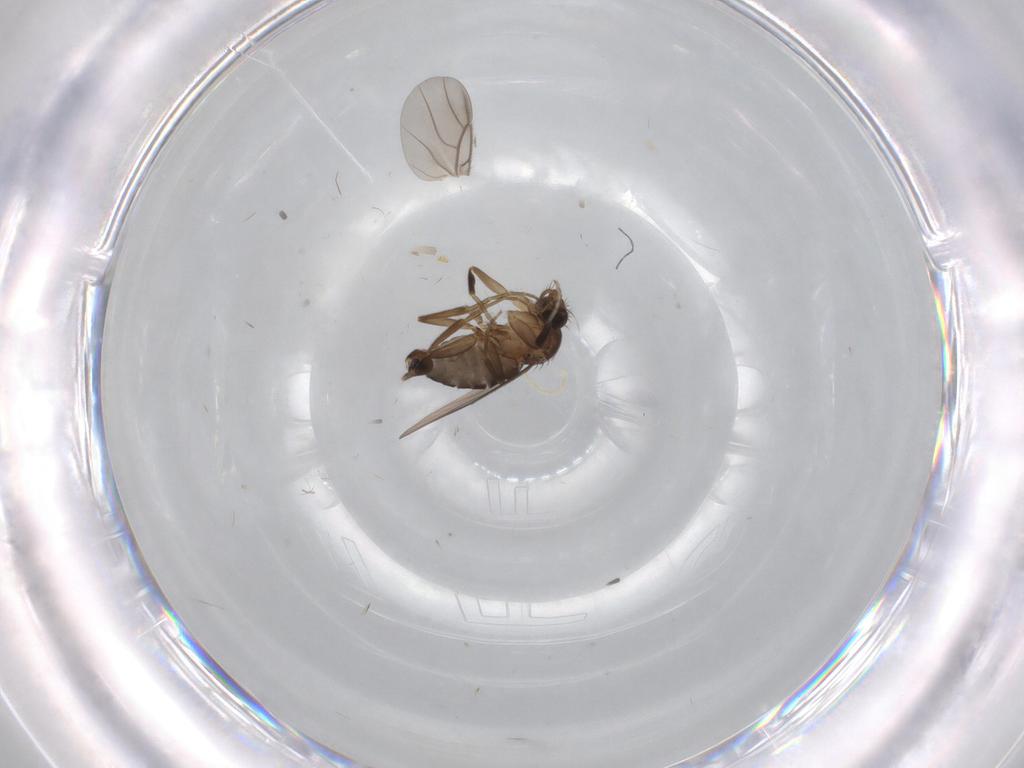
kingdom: Animalia
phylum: Arthropoda
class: Insecta
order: Diptera
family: Phoridae
